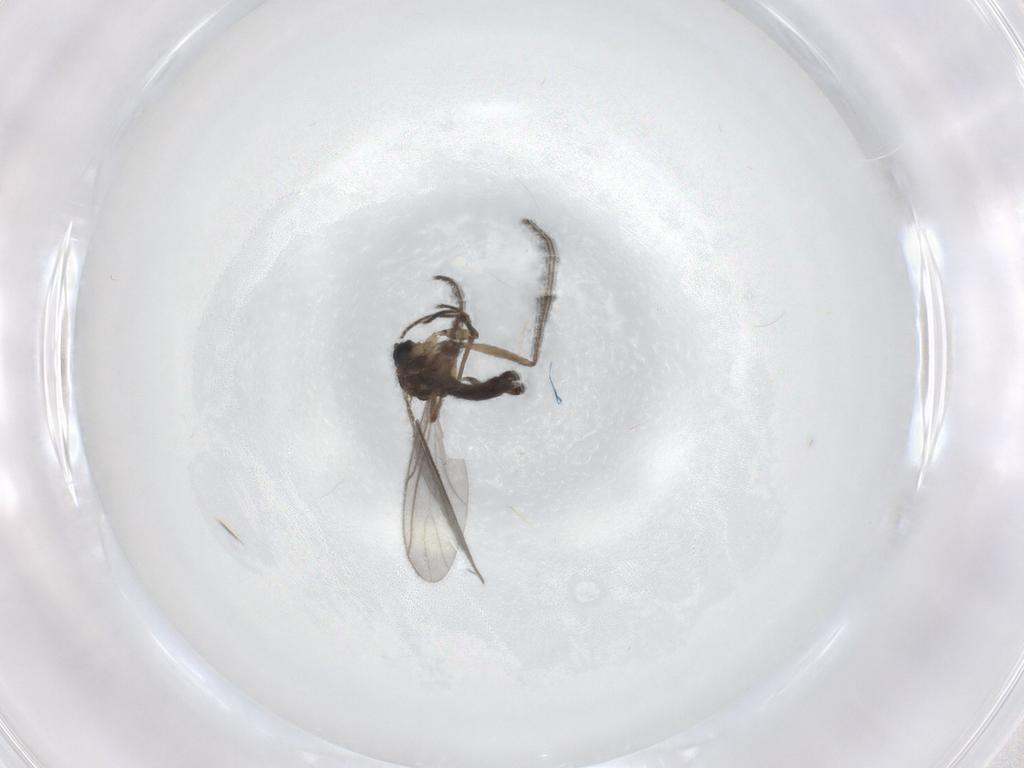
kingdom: Animalia
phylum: Arthropoda
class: Insecta
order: Diptera
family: Sciaridae
